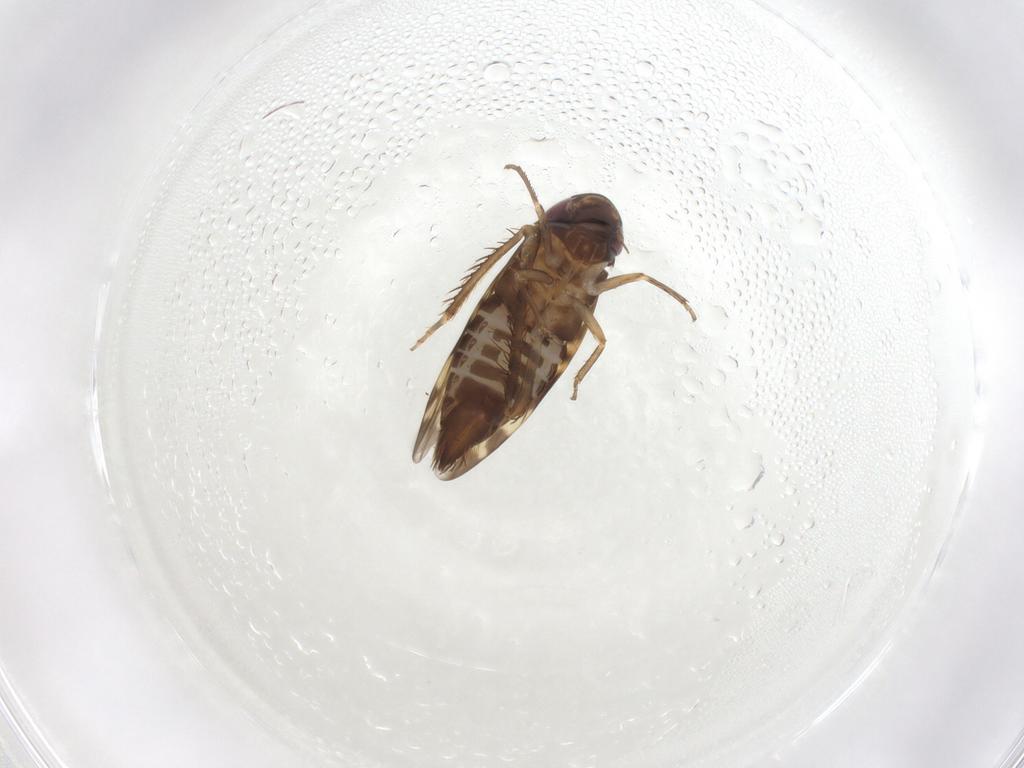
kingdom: Animalia
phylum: Arthropoda
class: Insecta
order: Hemiptera
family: Cicadellidae
